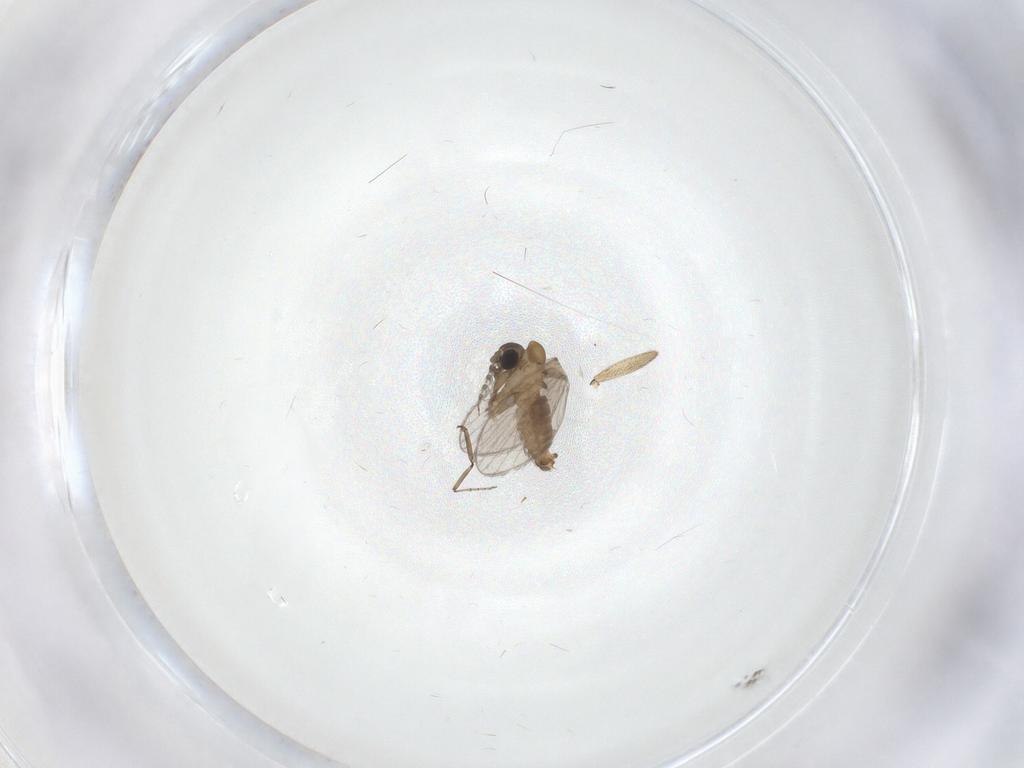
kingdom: Animalia
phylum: Arthropoda
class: Insecta
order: Diptera
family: Sciaridae
